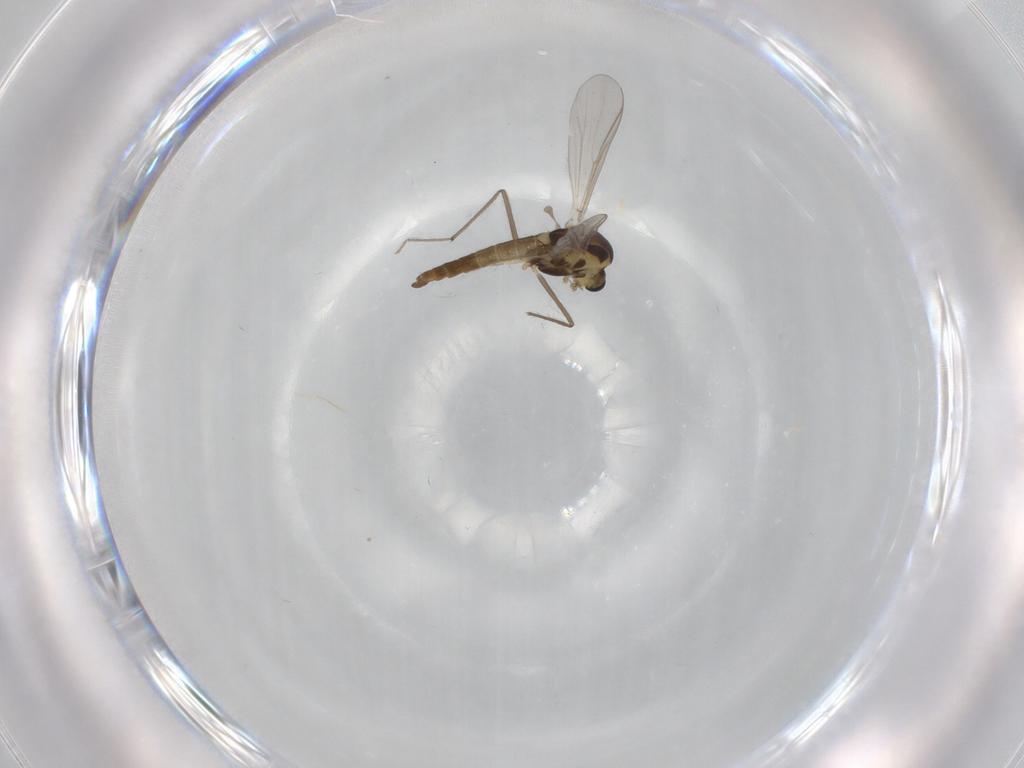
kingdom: Animalia
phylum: Arthropoda
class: Insecta
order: Diptera
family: Chironomidae
